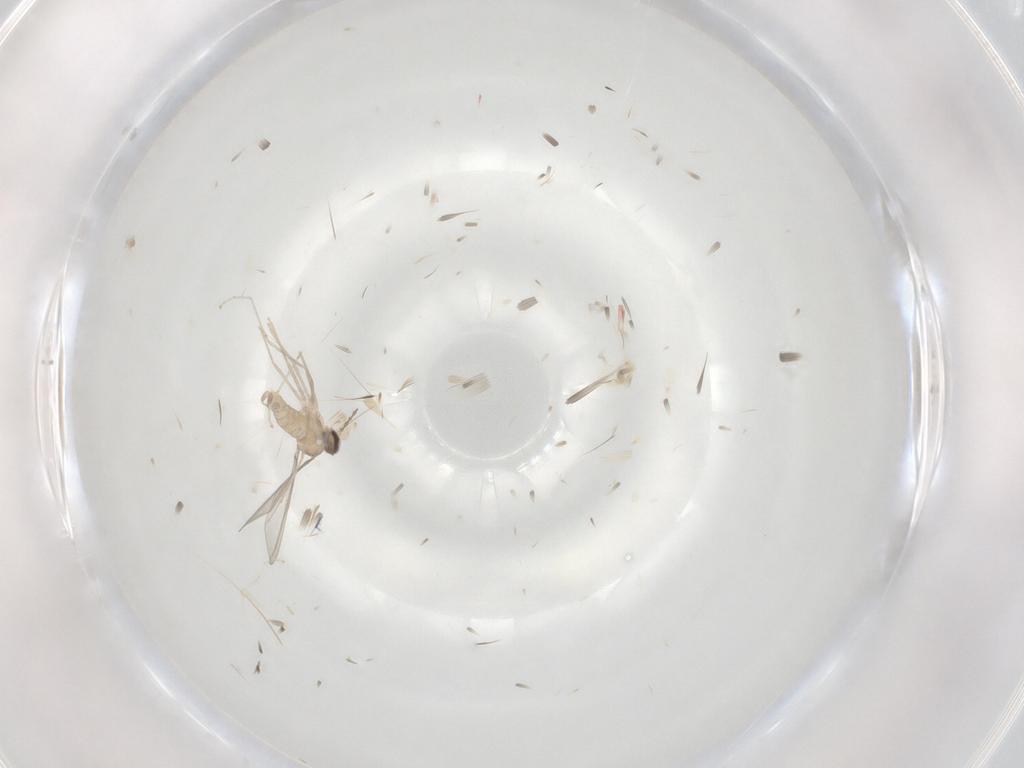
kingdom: Animalia
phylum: Arthropoda
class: Insecta
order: Diptera
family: Cecidomyiidae
